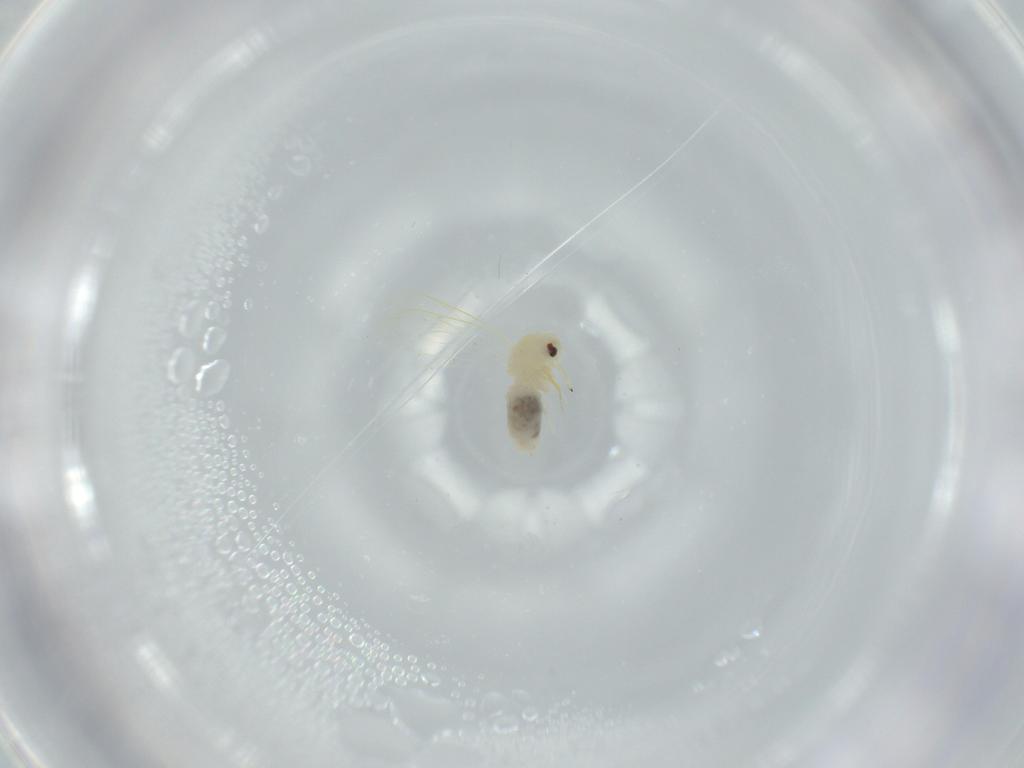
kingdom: Animalia
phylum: Arthropoda
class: Insecta
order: Hemiptera
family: Aleyrodidae
